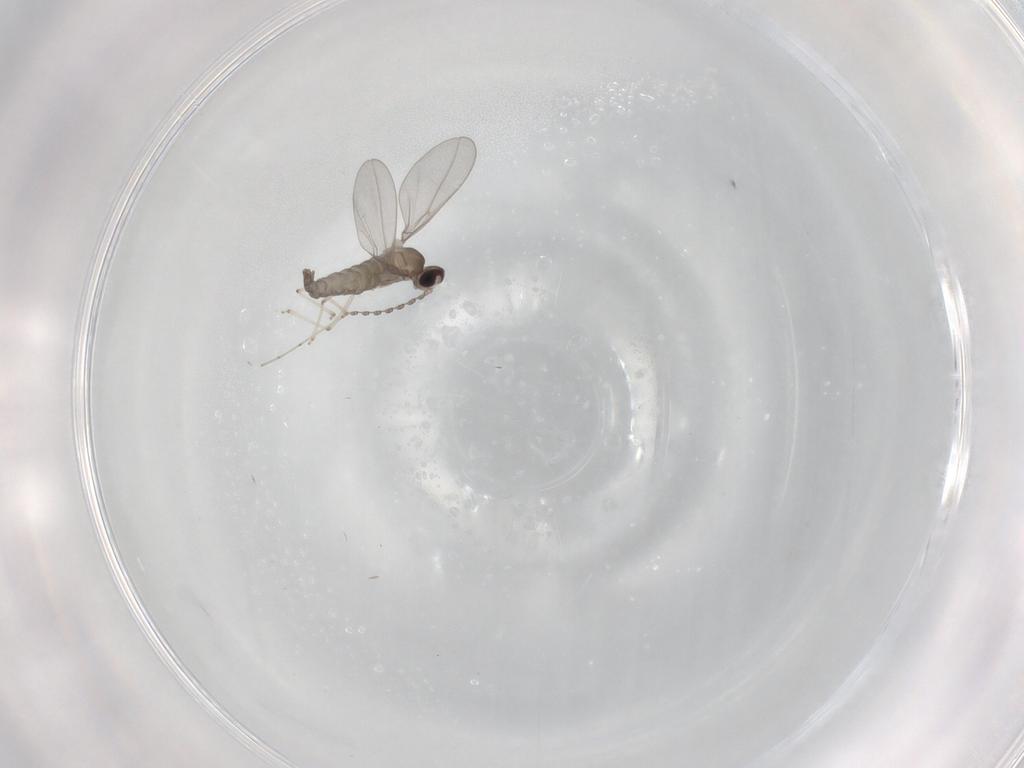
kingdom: Animalia
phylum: Arthropoda
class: Insecta
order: Diptera
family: Cecidomyiidae
